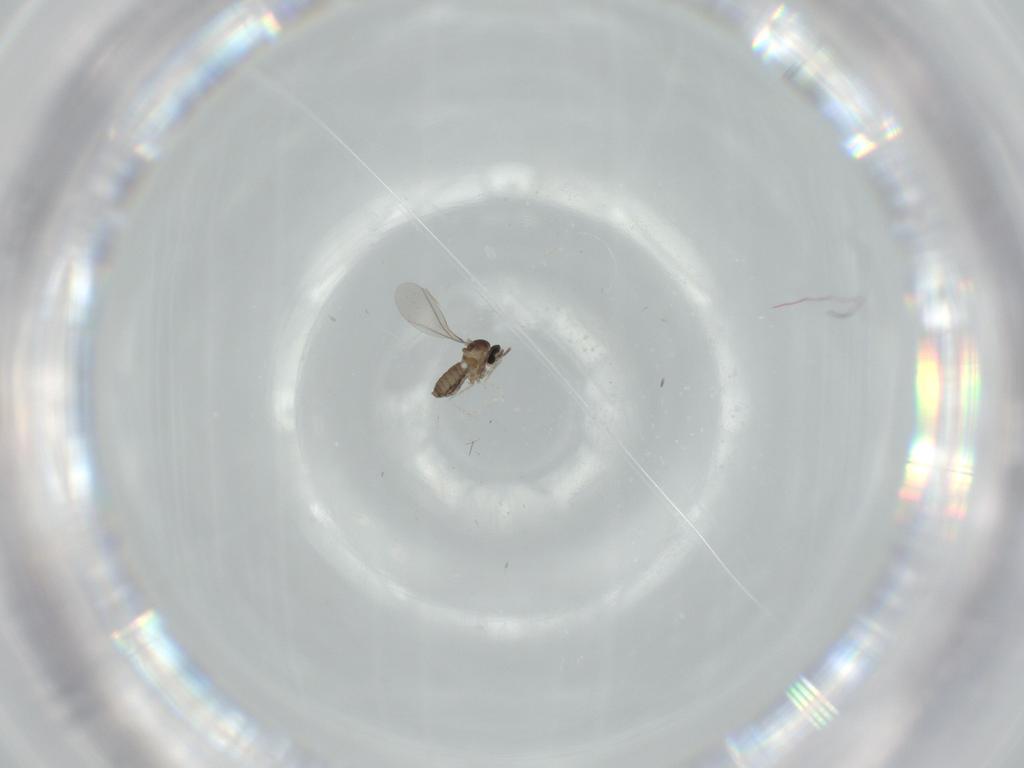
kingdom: Animalia
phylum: Arthropoda
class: Insecta
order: Diptera
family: Cecidomyiidae
